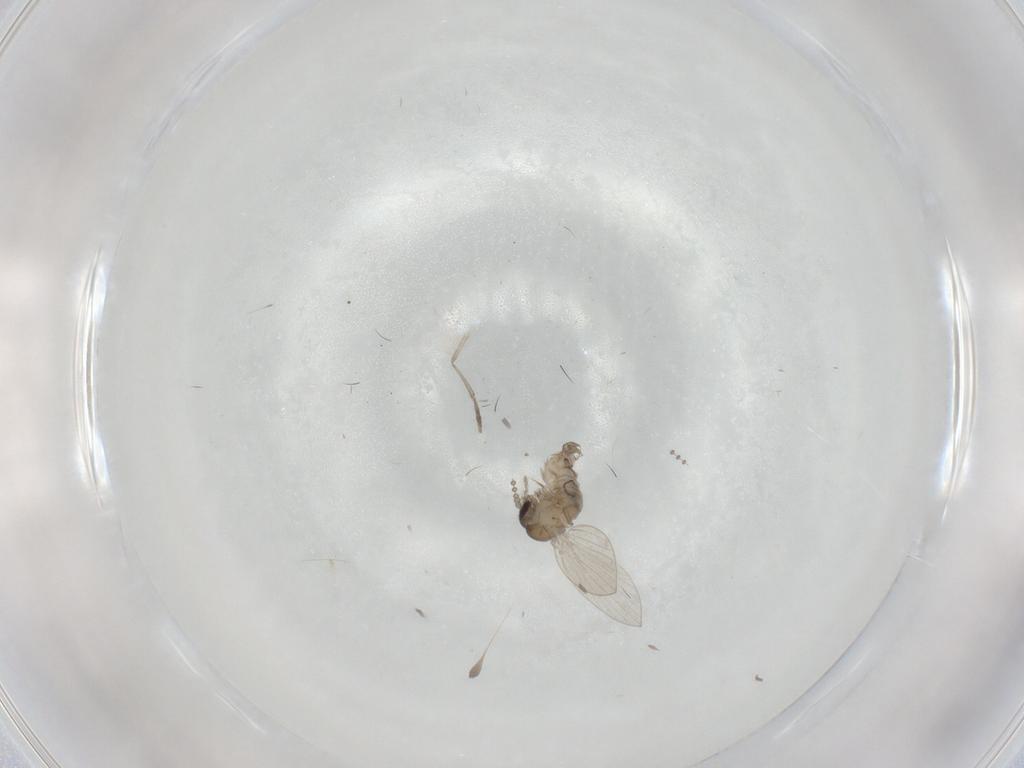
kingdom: Animalia
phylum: Arthropoda
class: Insecta
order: Diptera
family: Psychodidae
